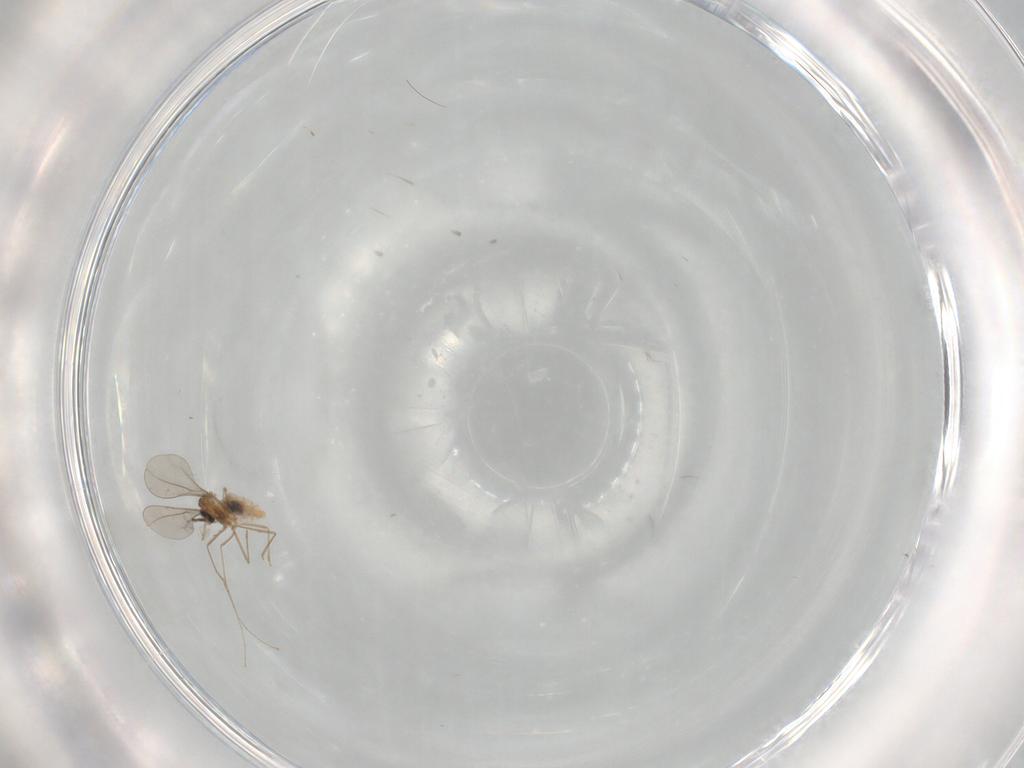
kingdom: Animalia
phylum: Arthropoda
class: Insecta
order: Diptera
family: Cecidomyiidae
